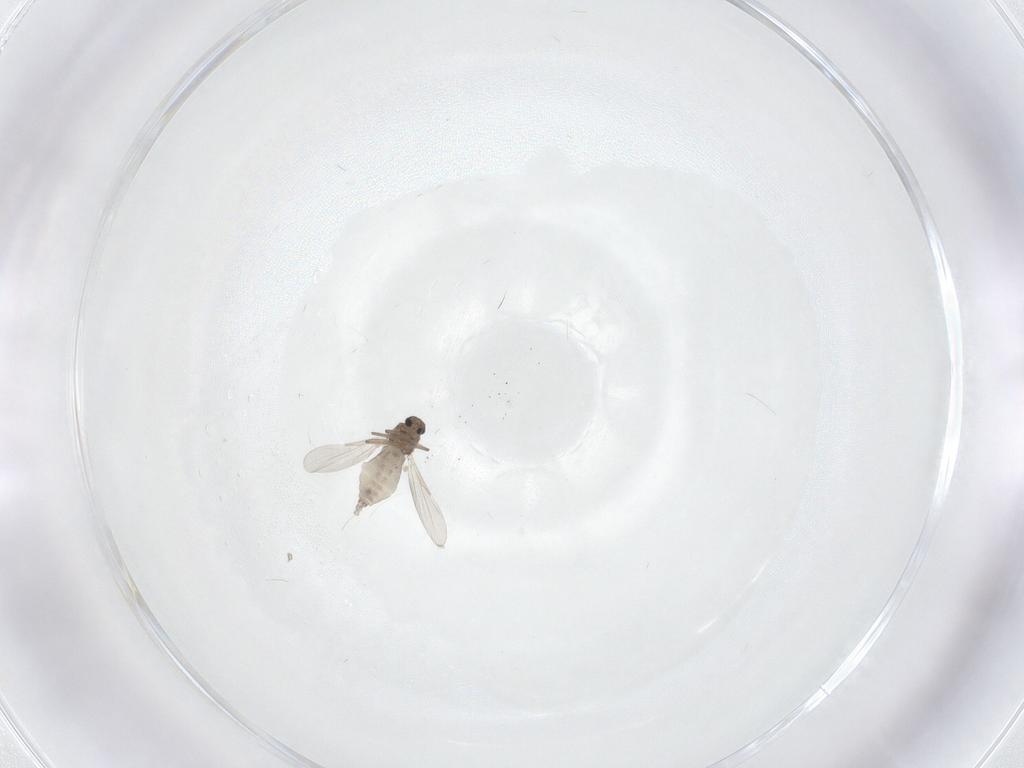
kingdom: Animalia
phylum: Arthropoda
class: Insecta
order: Diptera
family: Ceratopogonidae
